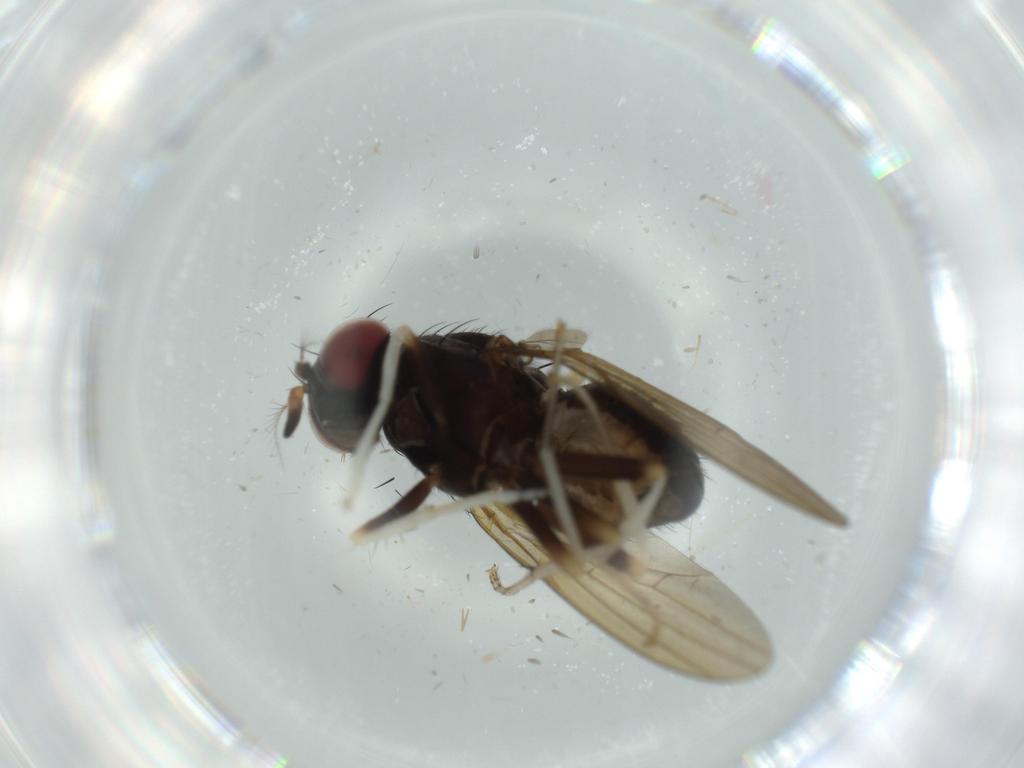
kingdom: Animalia
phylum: Arthropoda
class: Insecta
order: Diptera
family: Lauxaniidae
